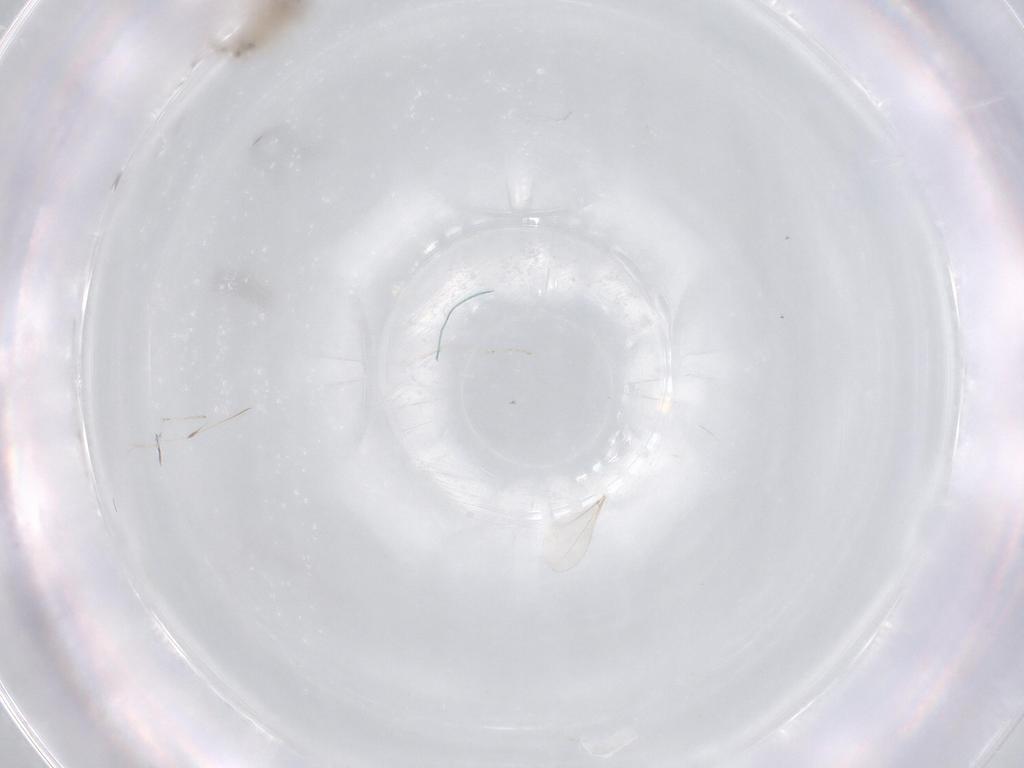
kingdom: Animalia
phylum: Arthropoda
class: Insecta
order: Diptera
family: Cecidomyiidae
